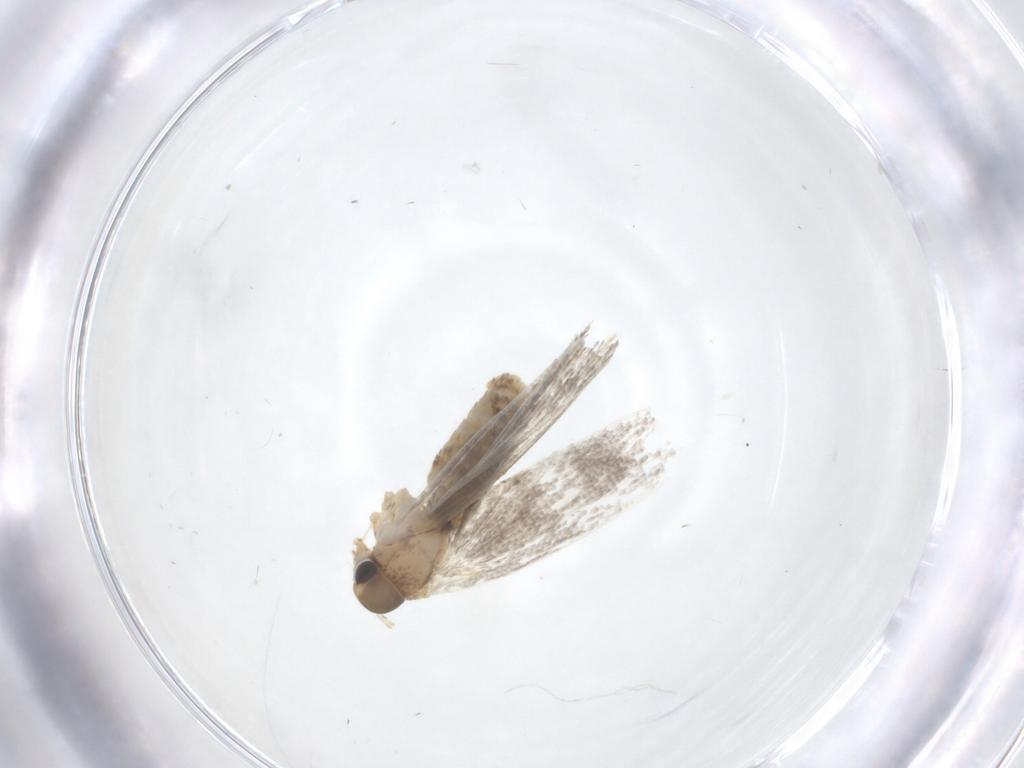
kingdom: Animalia
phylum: Arthropoda
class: Insecta
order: Lepidoptera
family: Oecophoridae
